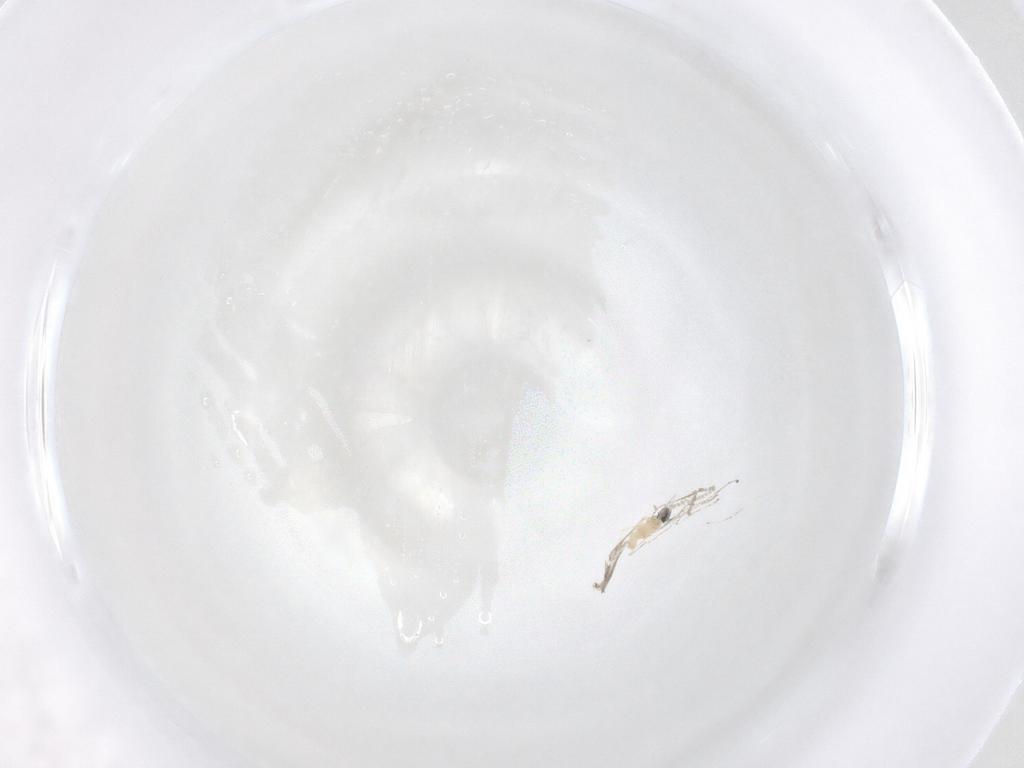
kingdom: Animalia
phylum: Arthropoda
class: Insecta
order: Diptera
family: Cecidomyiidae
